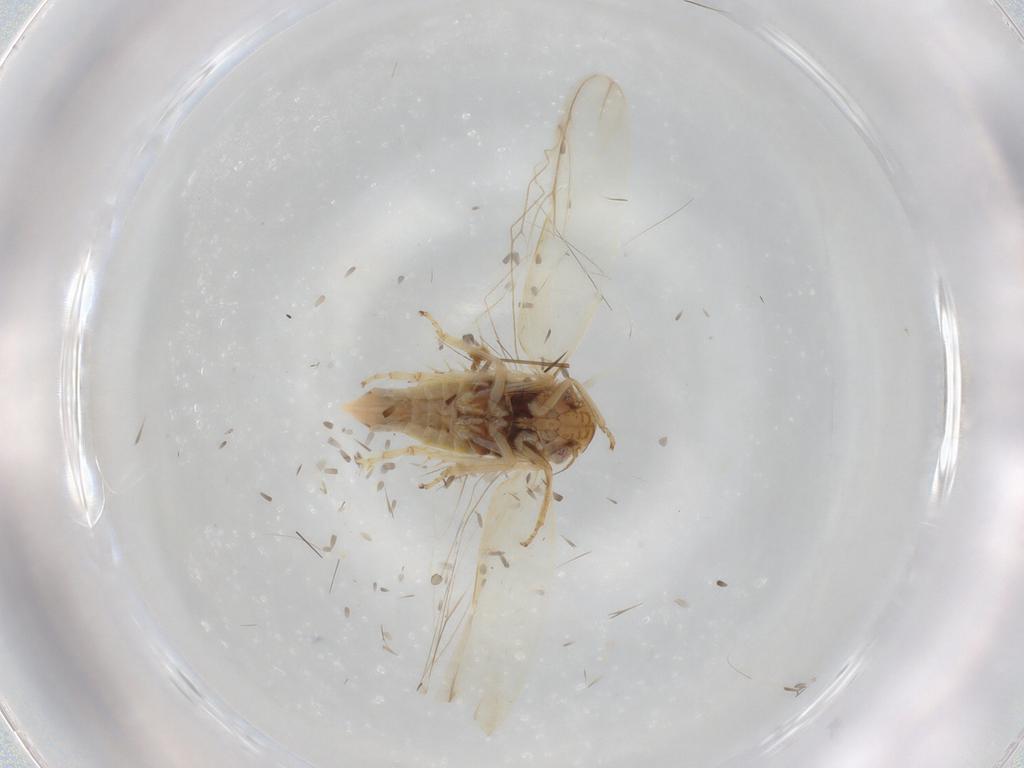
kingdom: Animalia
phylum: Arthropoda
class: Insecta
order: Hemiptera
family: Cicadellidae
